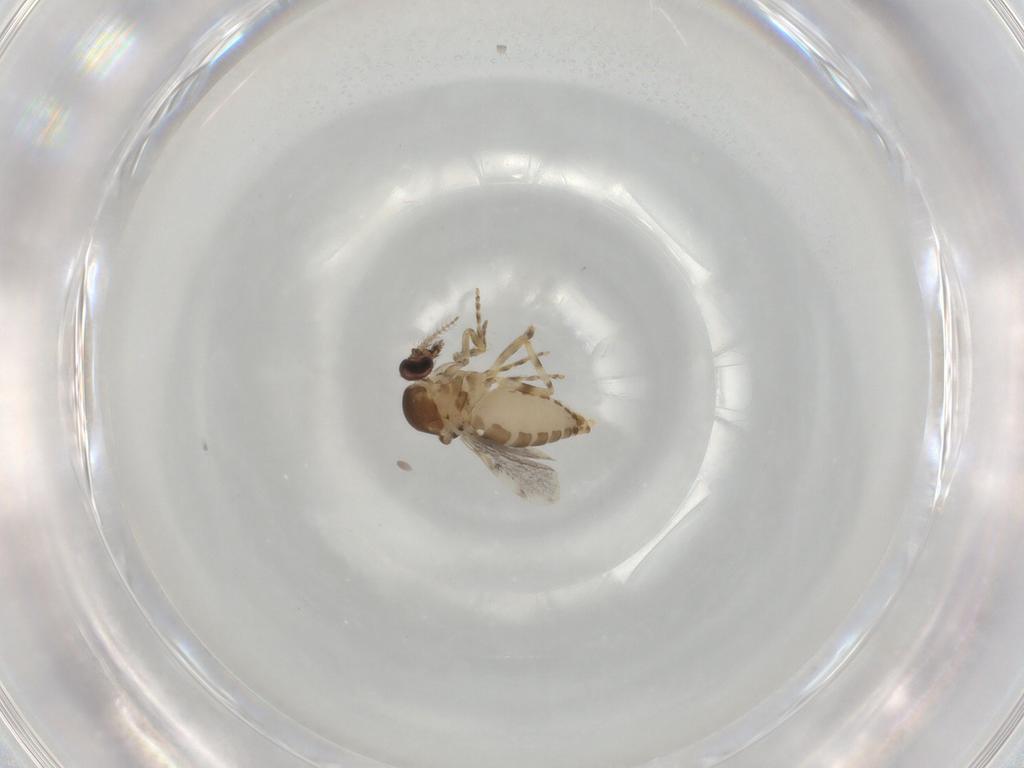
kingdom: Animalia
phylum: Arthropoda
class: Insecta
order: Diptera
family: Ceratopogonidae
